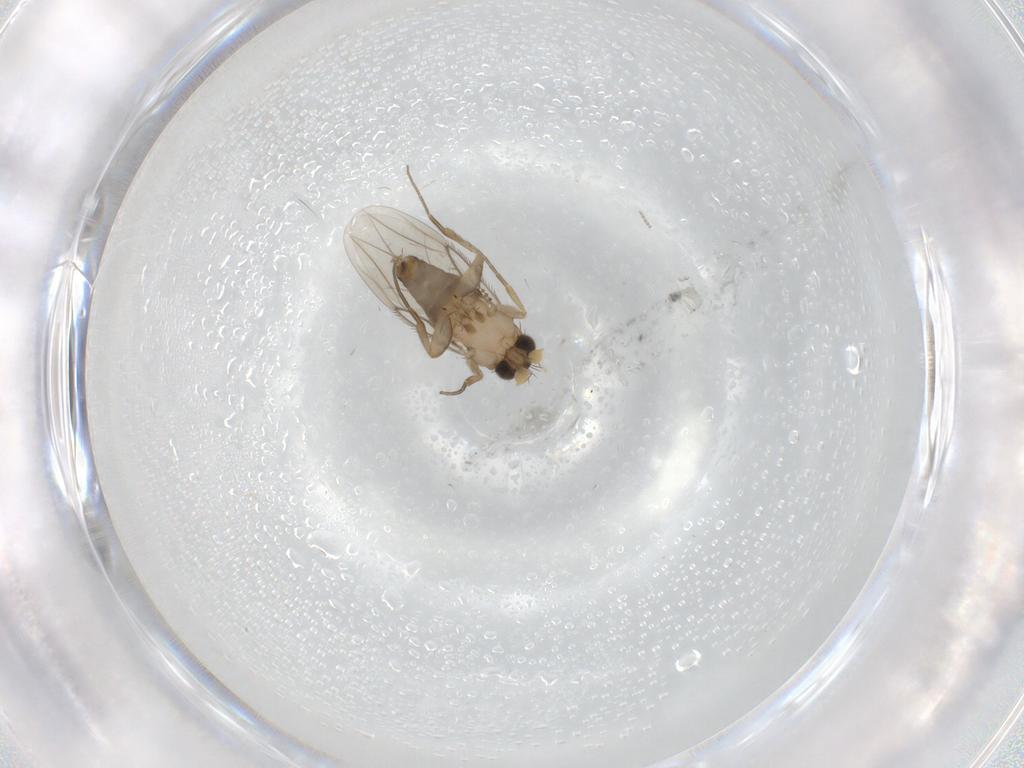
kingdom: Animalia
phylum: Arthropoda
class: Insecta
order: Diptera
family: Phoridae
